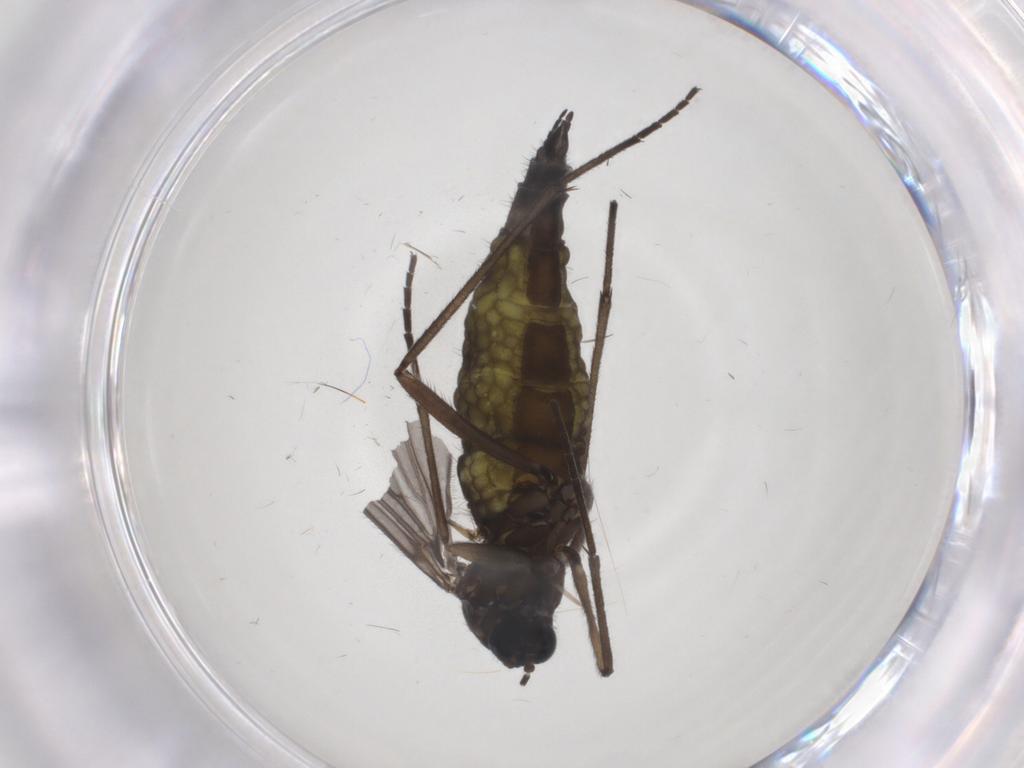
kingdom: Animalia
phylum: Arthropoda
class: Insecta
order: Diptera
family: Sciaridae
